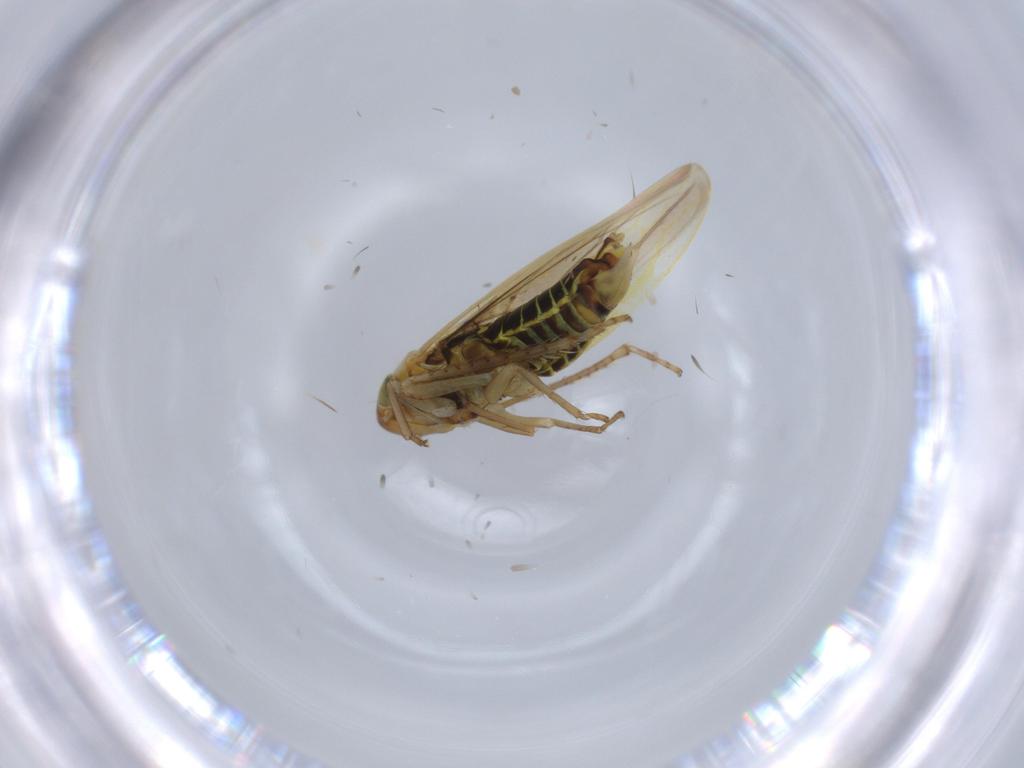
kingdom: Animalia
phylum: Arthropoda
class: Insecta
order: Hemiptera
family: Cicadellidae
